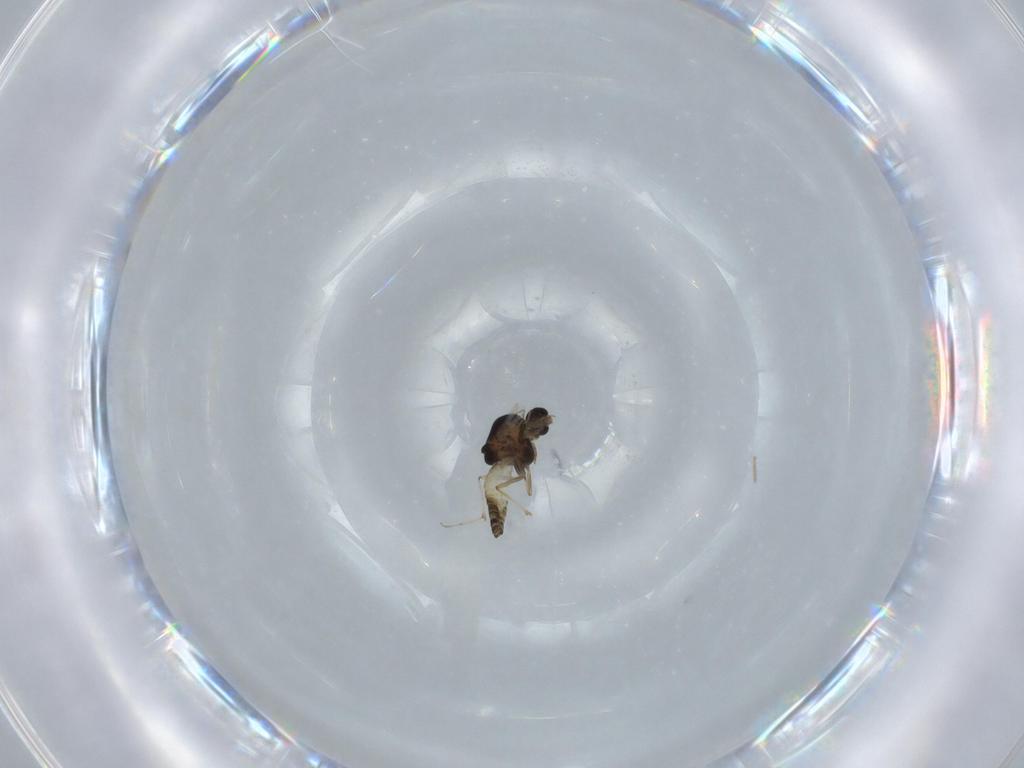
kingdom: Animalia
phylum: Arthropoda
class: Insecta
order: Diptera
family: Chironomidae
